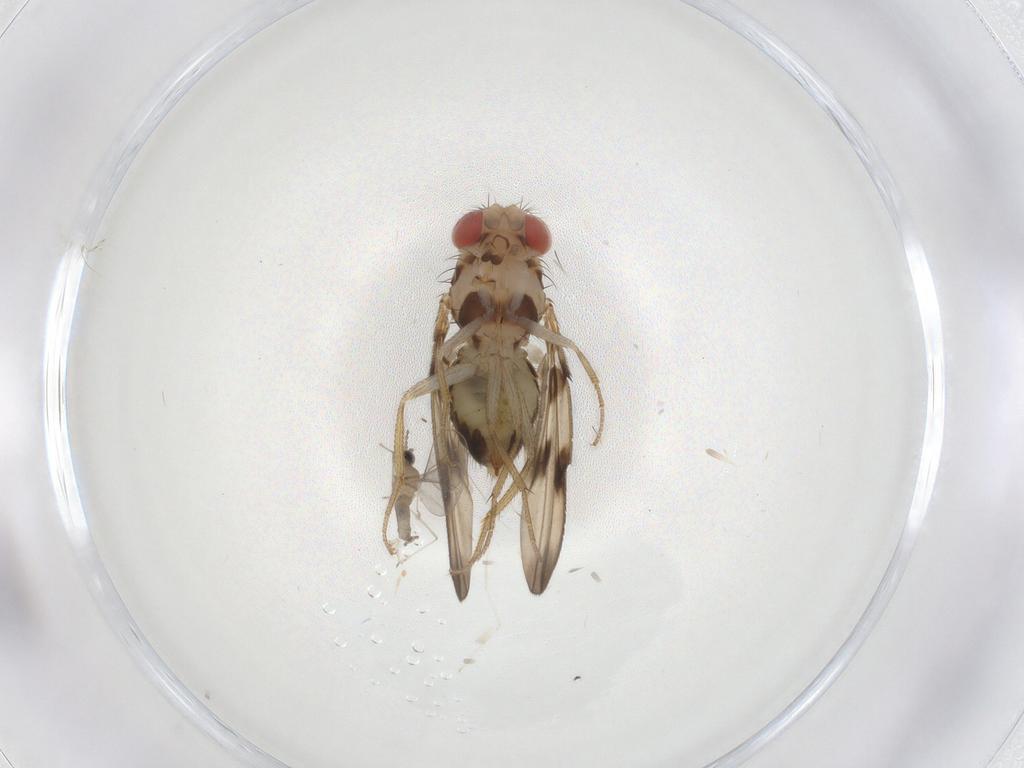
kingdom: Animalia
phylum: Arthropoda
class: Insecta
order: Diptera
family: Drosophilidae
